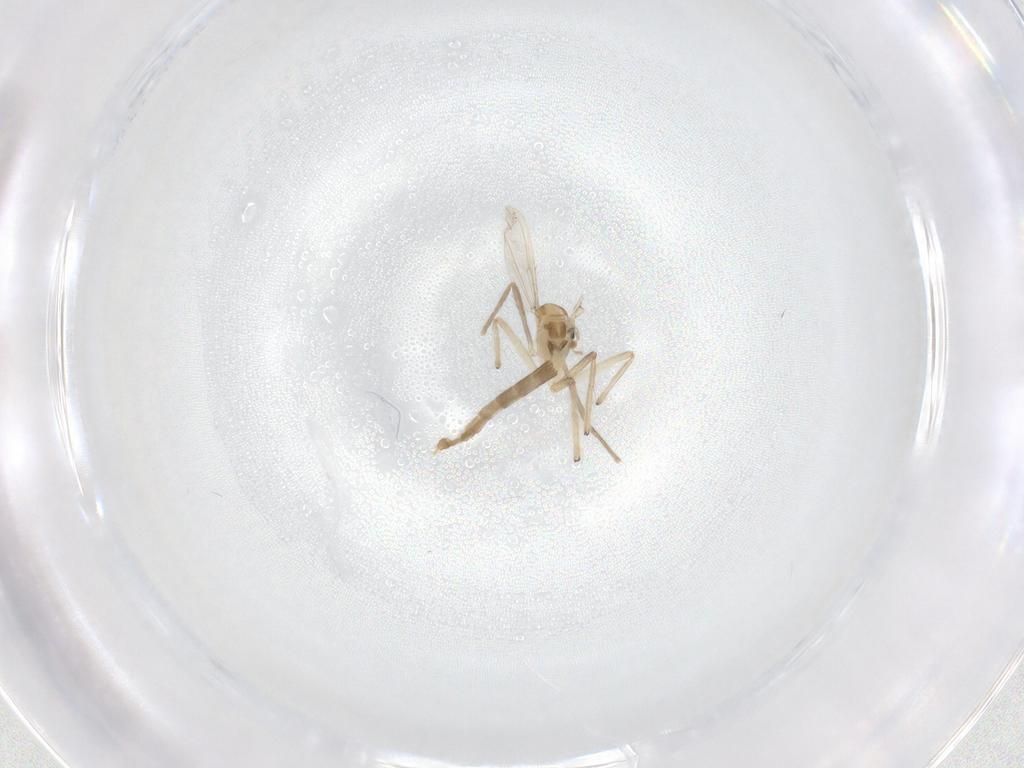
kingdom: Animalia
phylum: Arthropoda
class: Insecta
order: Diptera
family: Chironomidae
